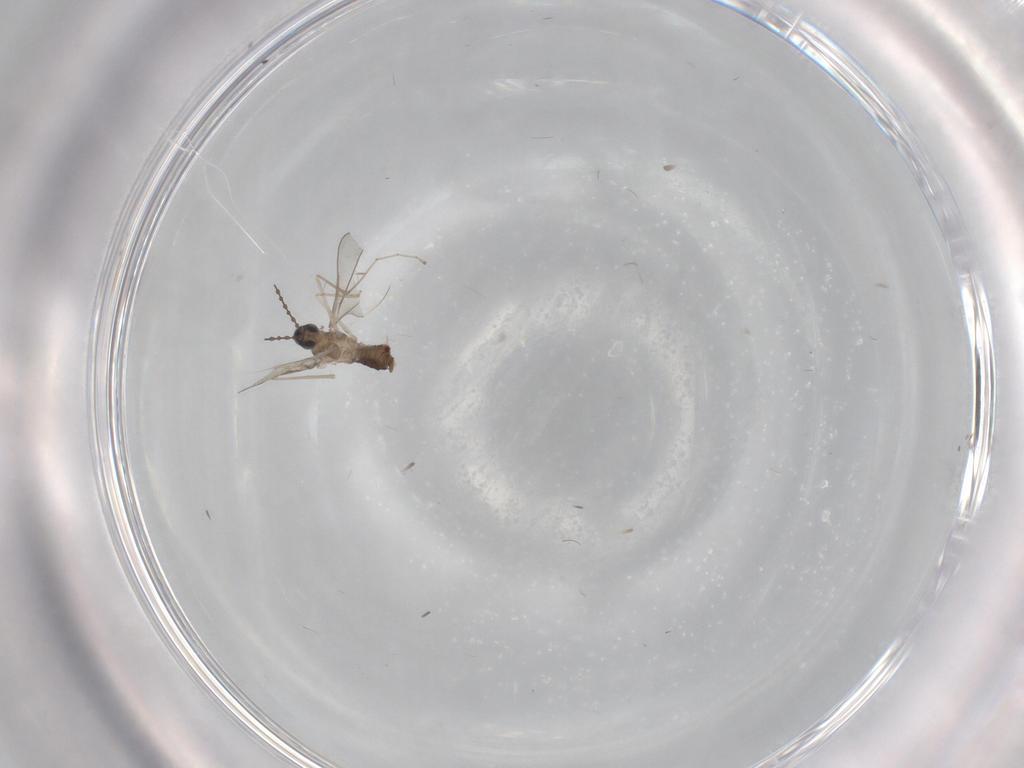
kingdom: Animalia
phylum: Arthropoda
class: Insecta
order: Diptera
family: Cecidomyiidae
